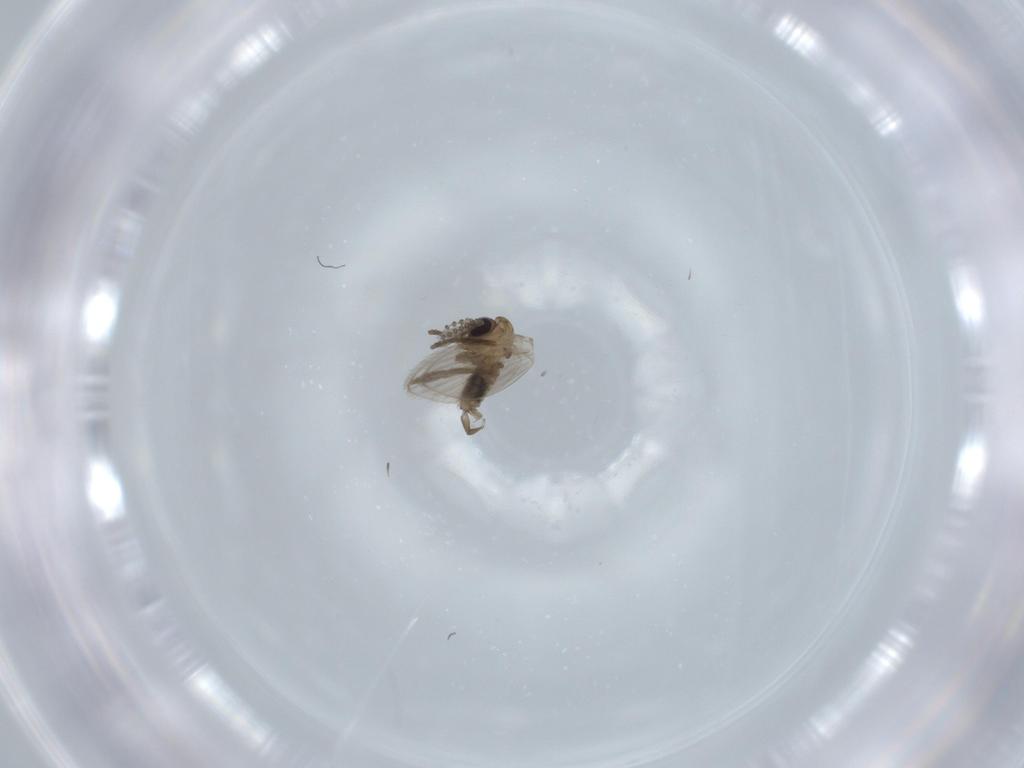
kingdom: Animalia
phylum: Arthropoda
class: Insecta
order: Diptera
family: Psychodidae
